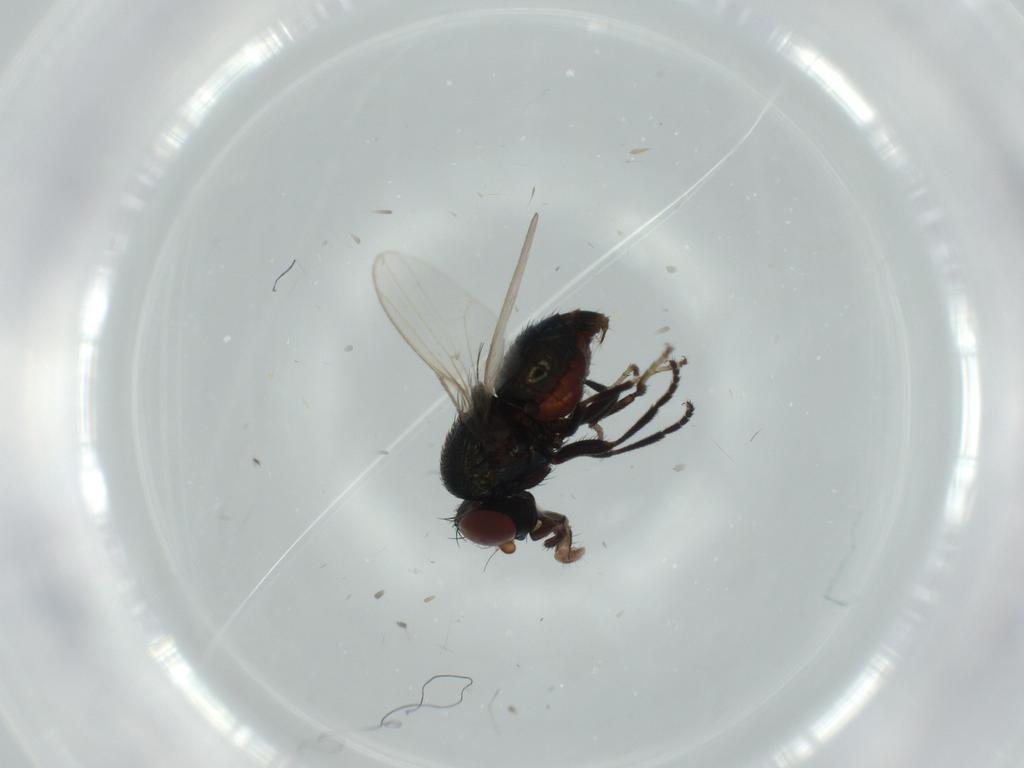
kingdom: Animalia
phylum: Arthropoda
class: Insecta
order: Diptera
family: Drosophilidae
